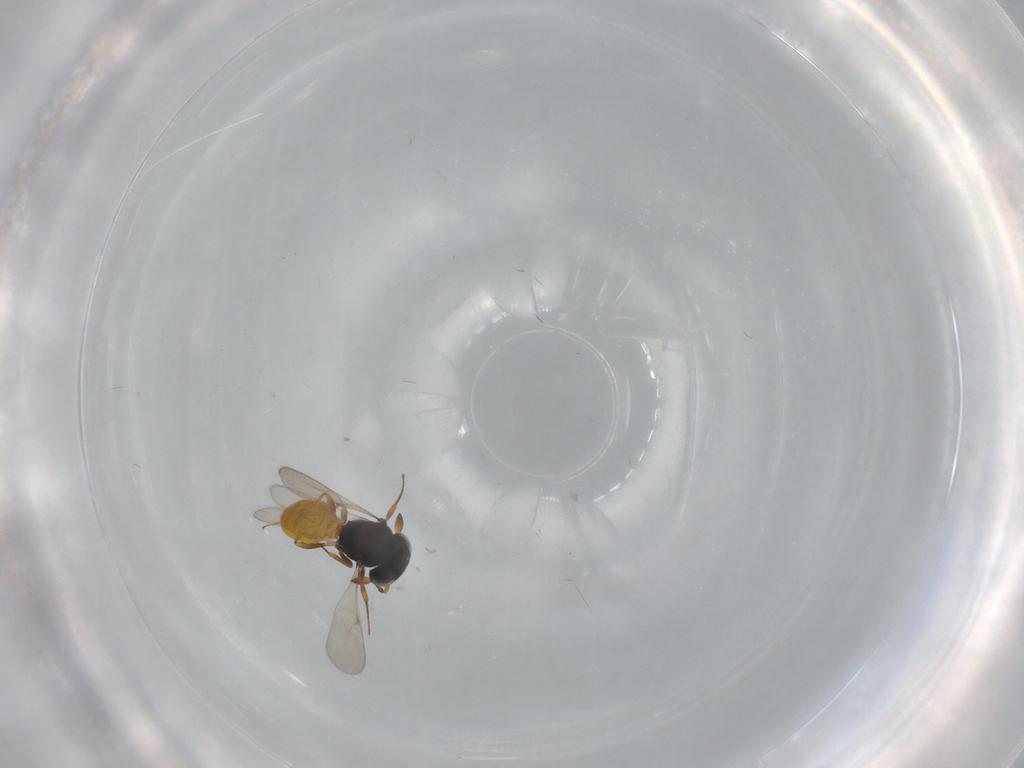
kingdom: Animalia
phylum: Arthropoda
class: Insecta
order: Hymenoptera
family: Scelionidae
